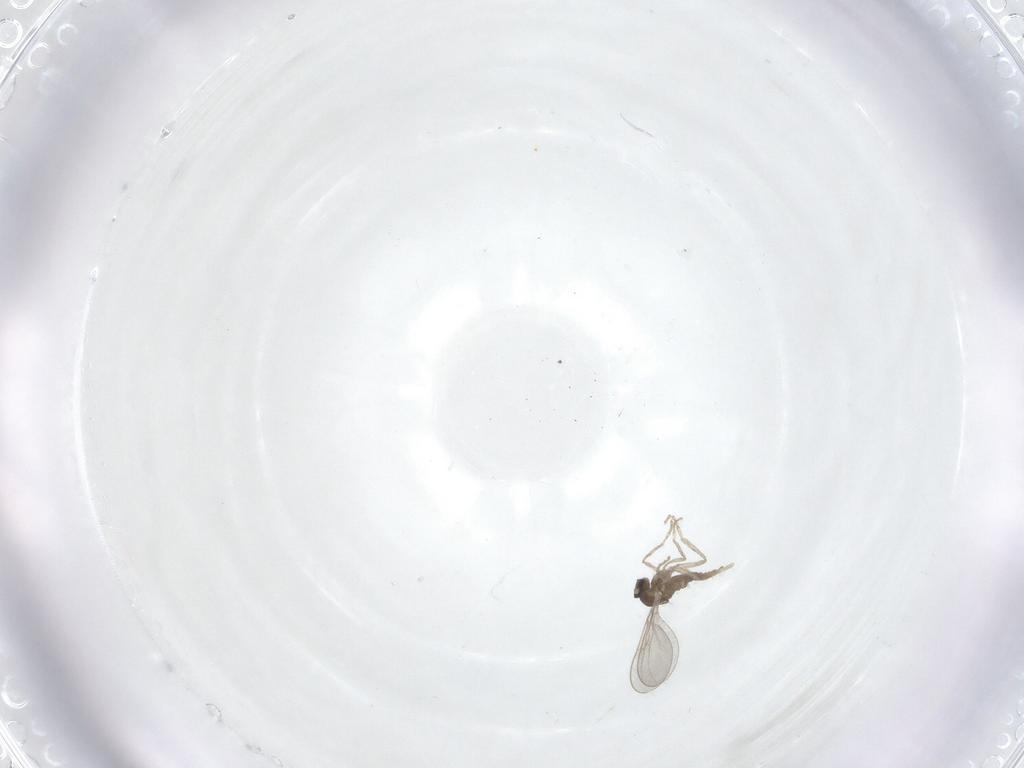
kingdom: Animalia
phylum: Arthropoda
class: Insecta
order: Diptera
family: Cecidomyiidae
